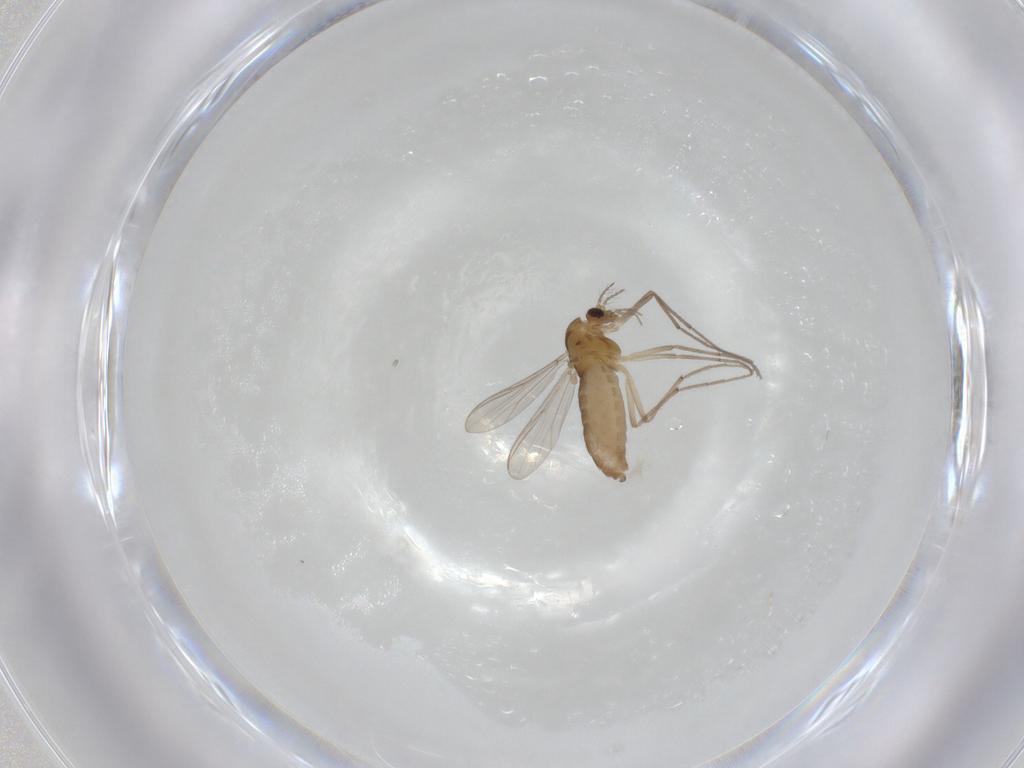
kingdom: Animalia
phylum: Arthropoda
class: Insecta
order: Diptera
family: Chironomidae
